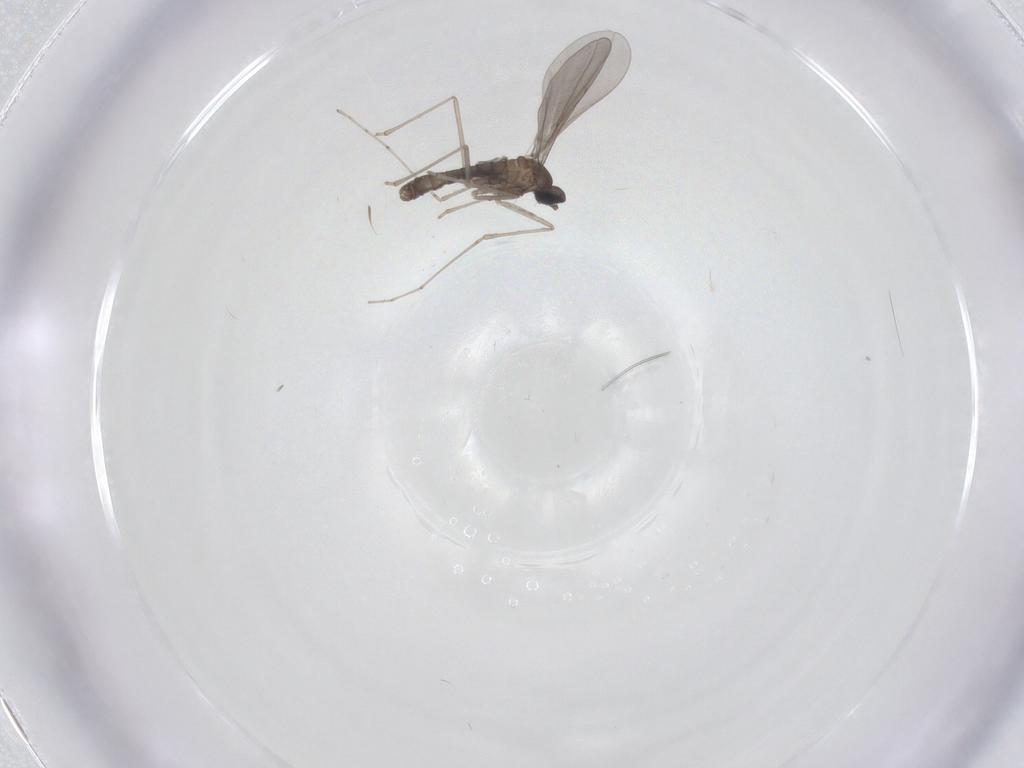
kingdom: Animalia
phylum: Arthropoda
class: Insecta
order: Diptera
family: Cecidomyiidae
